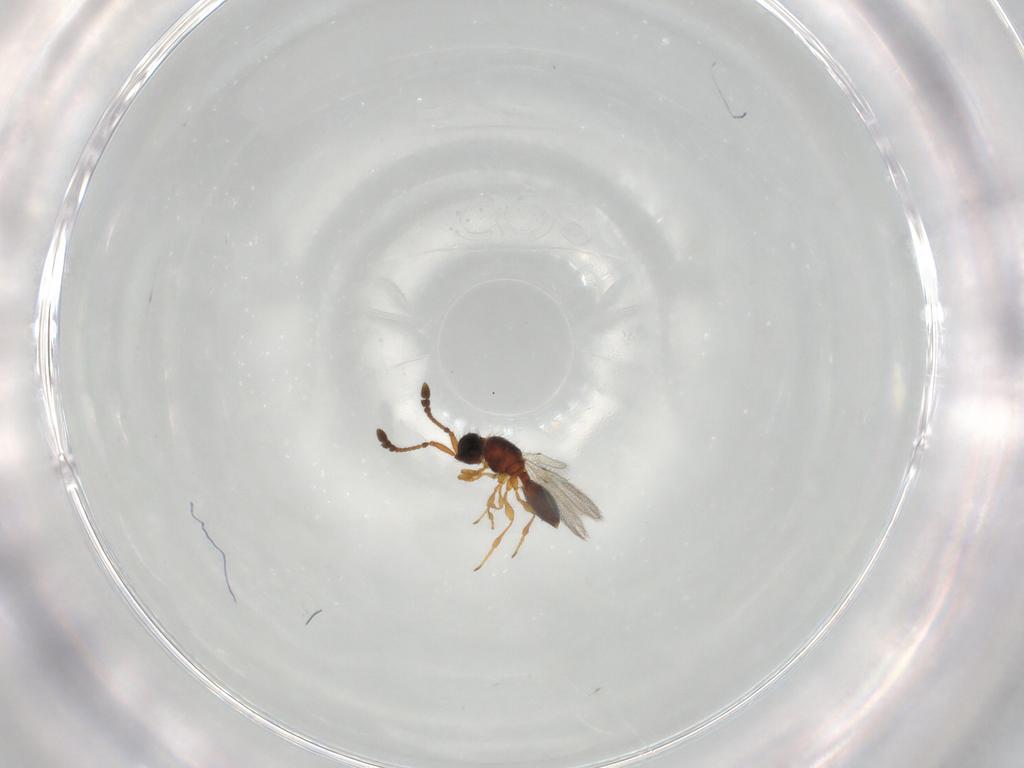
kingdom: Animalia
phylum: Arthropoda
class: Insecta
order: Hymenoptera
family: Diapriidae
